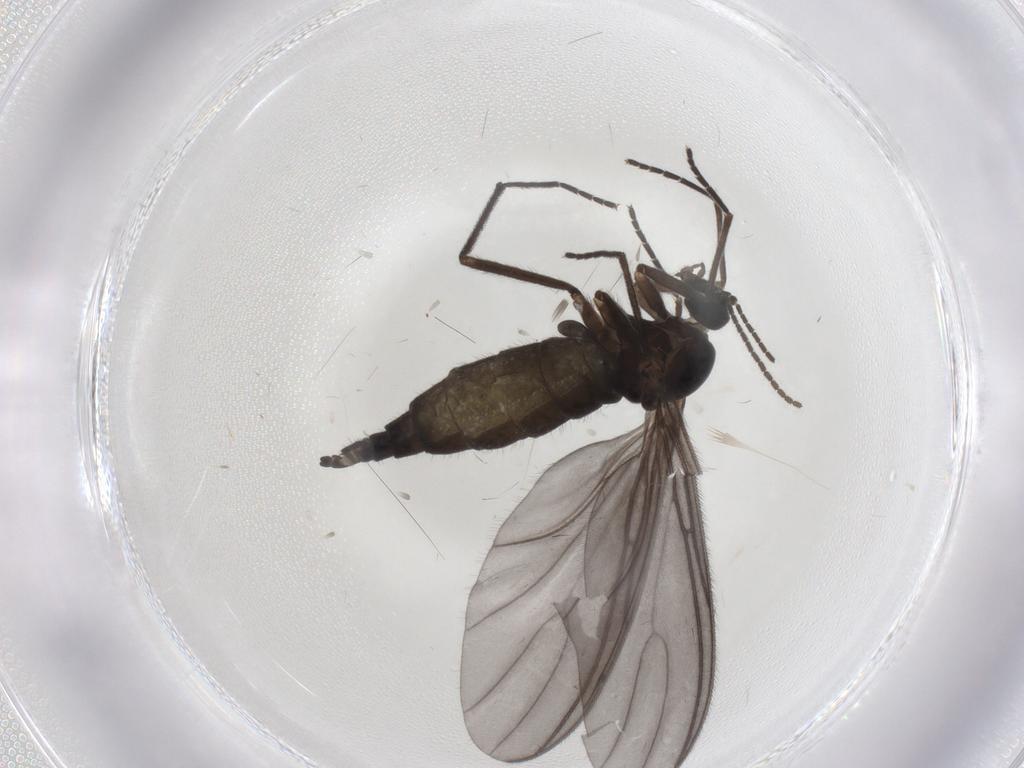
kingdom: Animalia
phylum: Arthropoda
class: Insecta
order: Diptera
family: Sciaridae
